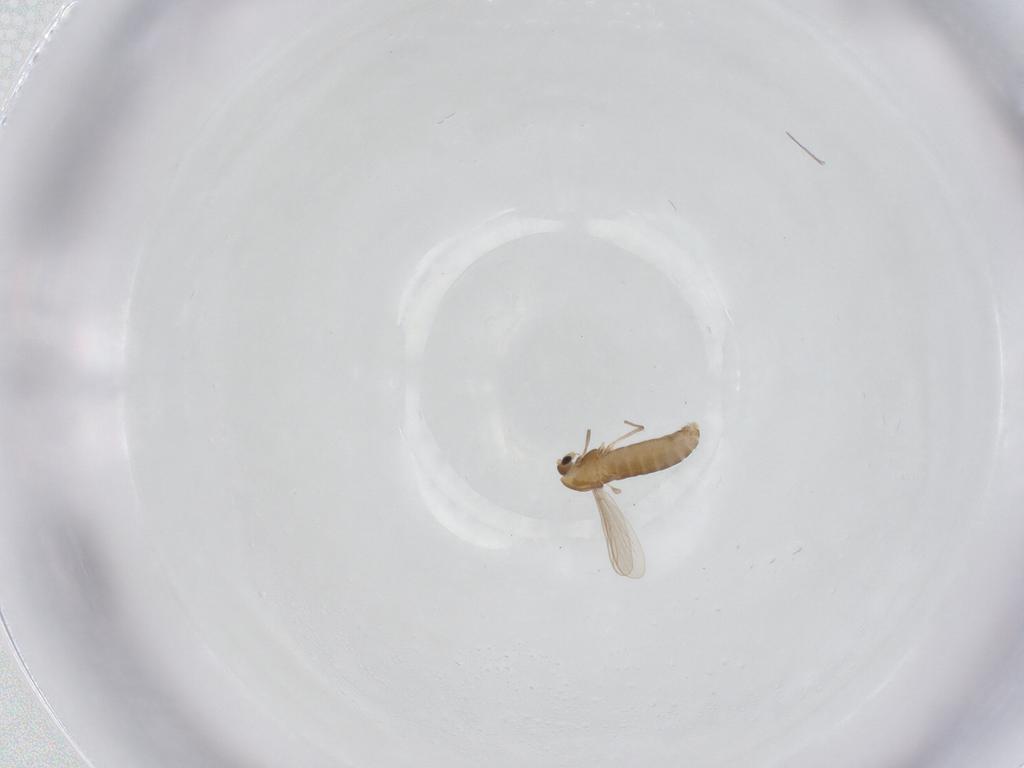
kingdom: Animalia
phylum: Arthropoda
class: Insecta
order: Diptera
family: Chironomidae
